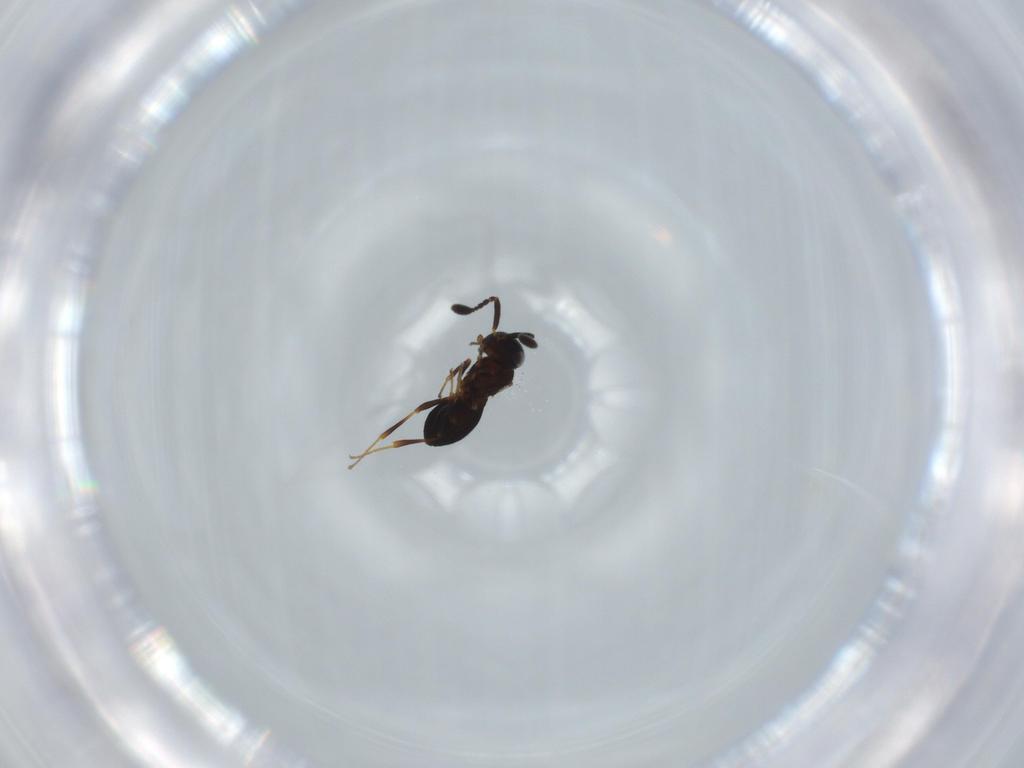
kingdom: Animalia
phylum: Arthropoda
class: Insecta
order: Hymenoptera
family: Scelionidae
